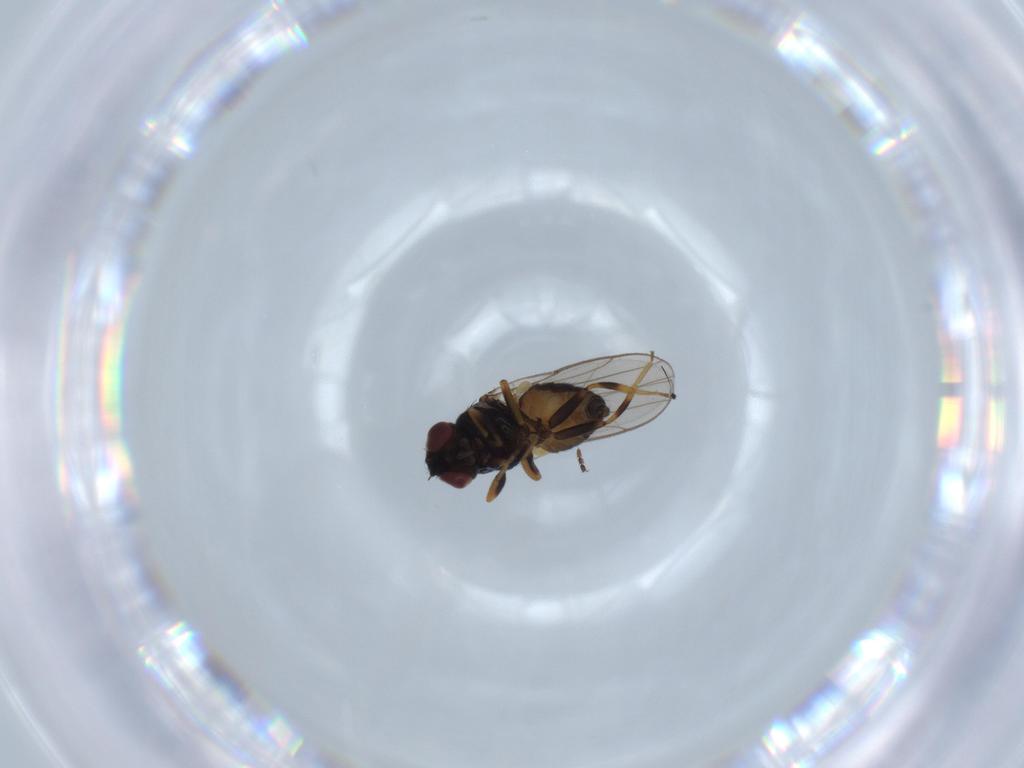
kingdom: Animalia
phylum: Arthropoda
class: Insecta
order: Diptera
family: Chloropidae
